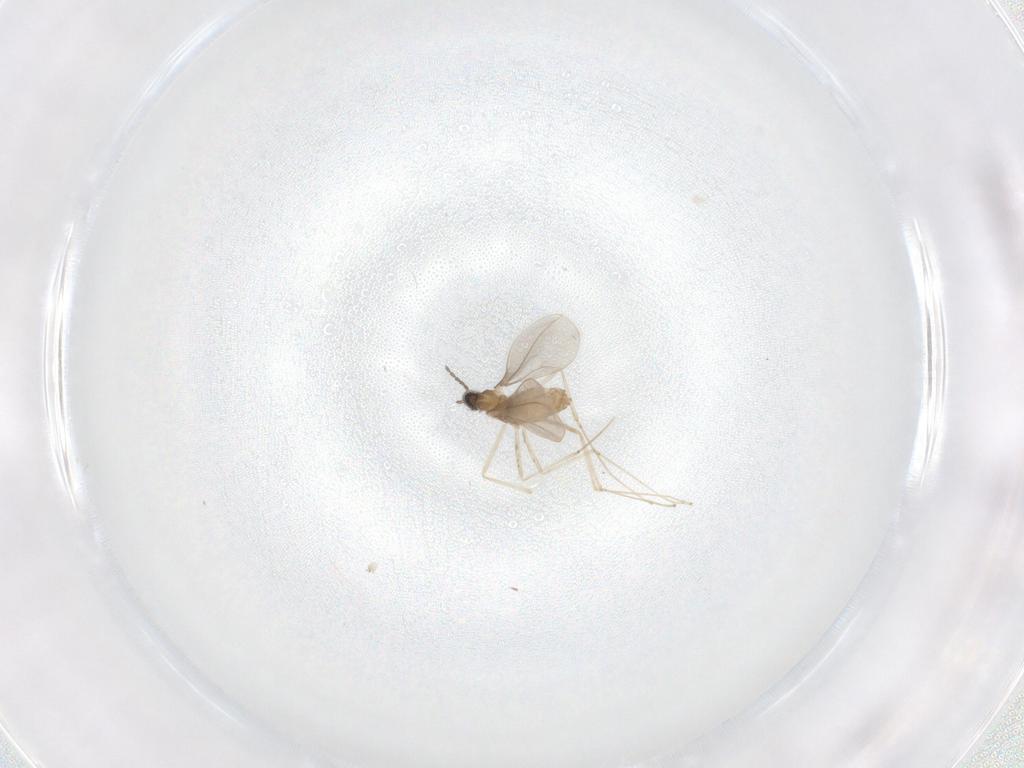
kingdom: Animalia
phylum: Arthropoda
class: Insecta
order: Diptera
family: Cecidomyiidae
